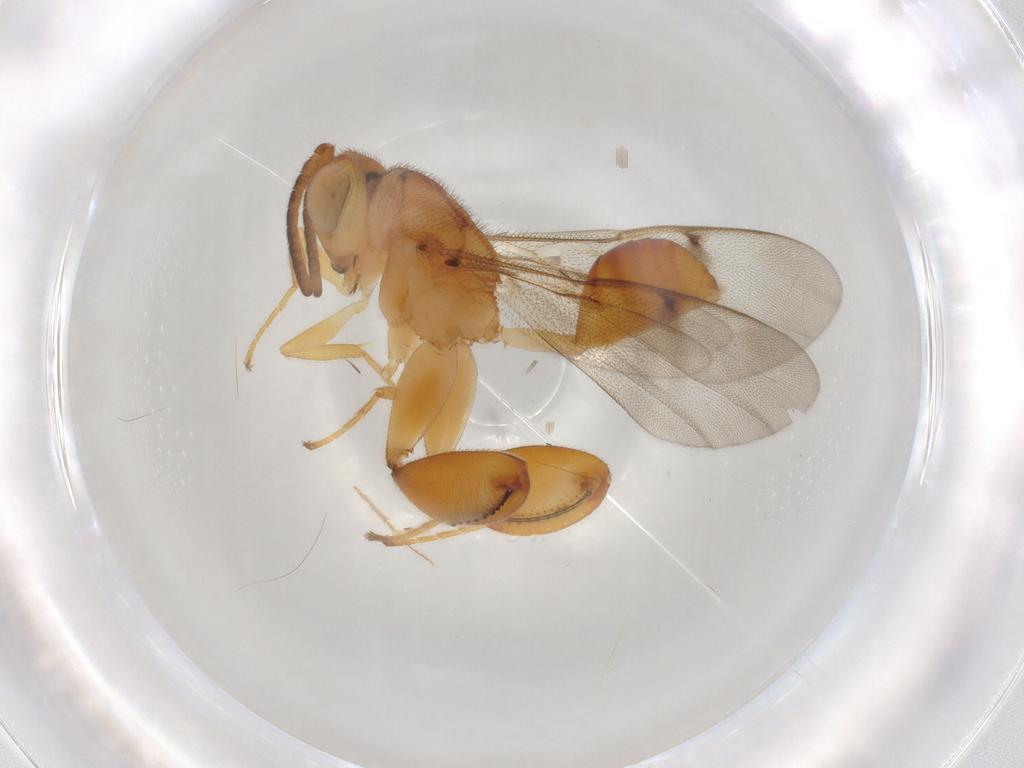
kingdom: Animalia
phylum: Arthropoda
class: Insecta
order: Hymenoptera
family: Chalcididae
